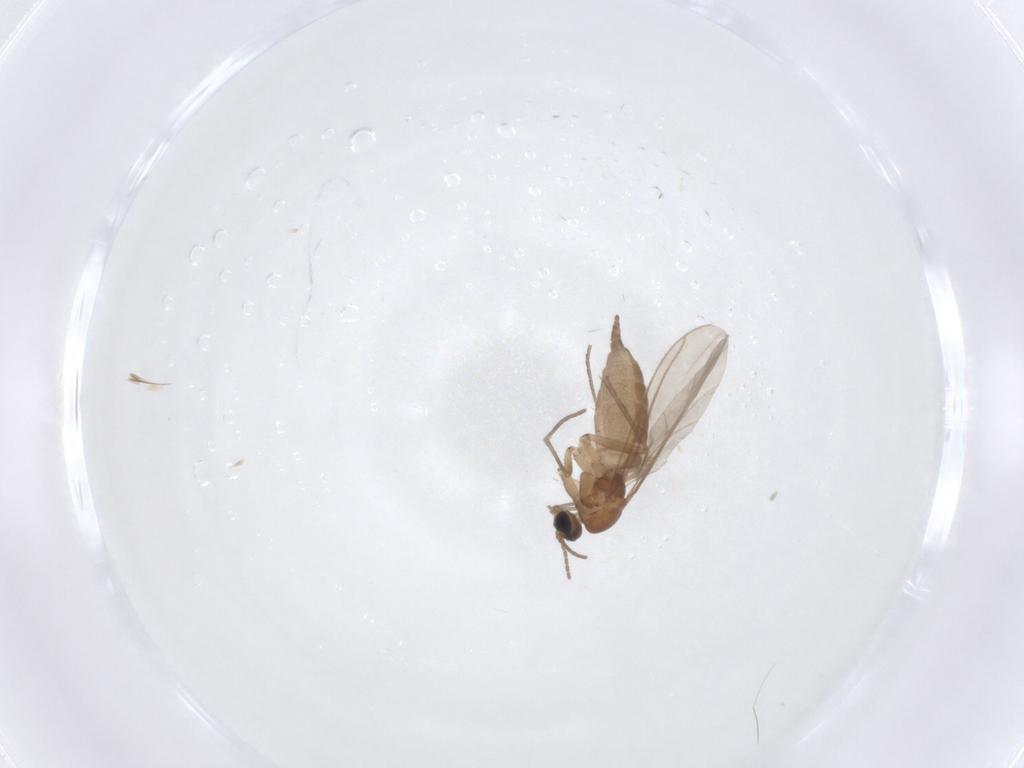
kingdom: Animalia
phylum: Arthropoda
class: Insecta
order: Diptera
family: Sciaridae
